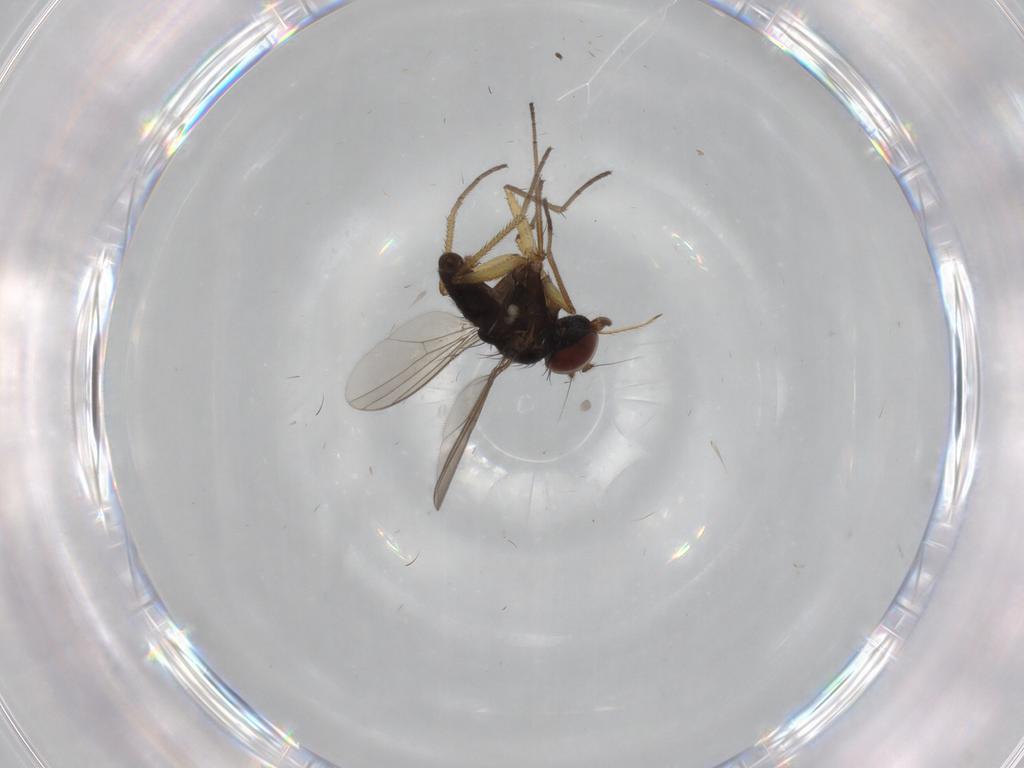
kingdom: Animalia
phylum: Arthropoda
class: Insecta
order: Diptera
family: Dolichopodidae
